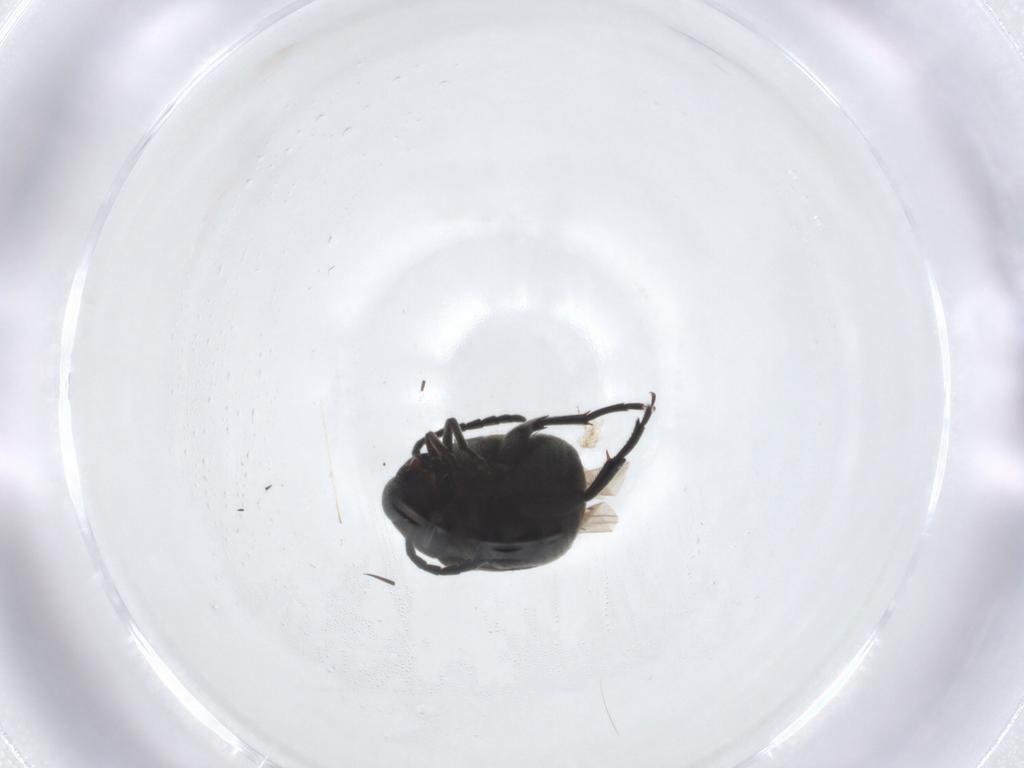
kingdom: Animalia
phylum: Arthropoda
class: Insecta
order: Coleoptera
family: Chrysomelidae
